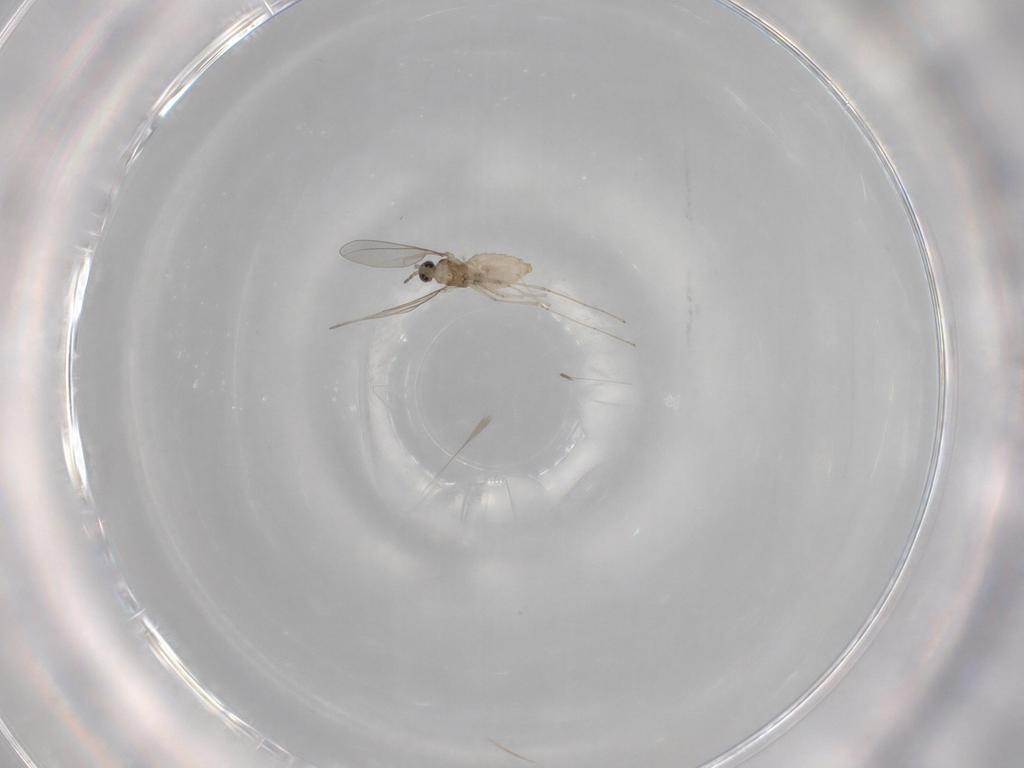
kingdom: Animalia
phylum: Arthropoda
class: Insecta
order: Diptera
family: Cecidomyiidae
